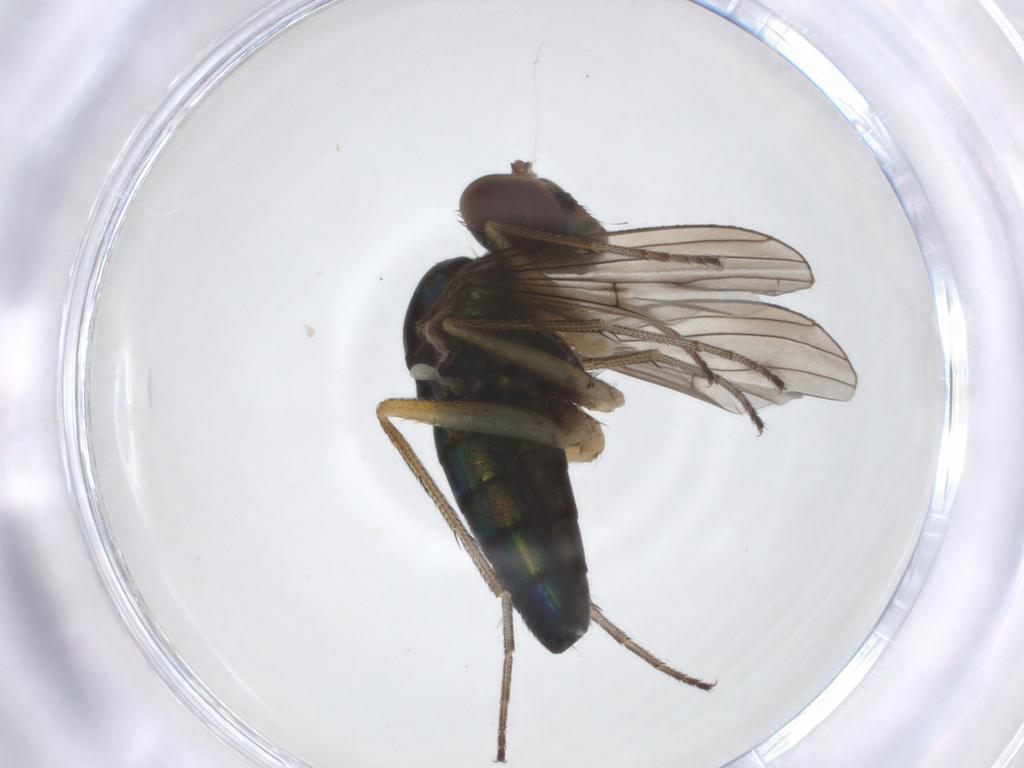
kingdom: Animalia
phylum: Arthropoda
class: Insecta
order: Diptera
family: Dolichopodidae
